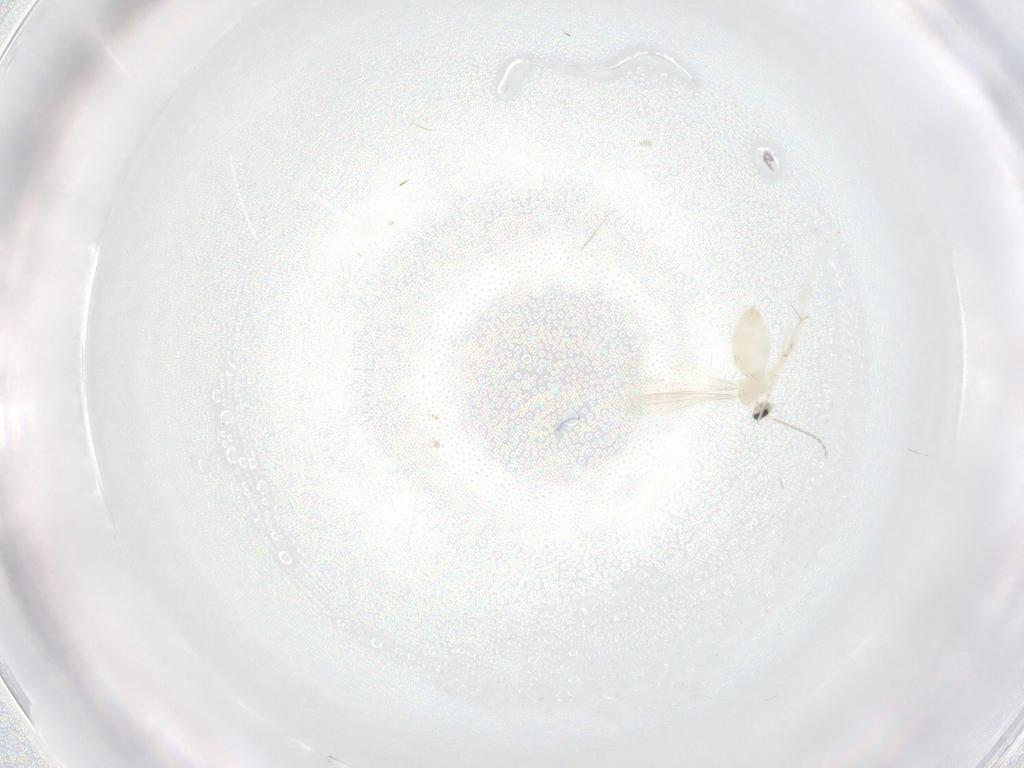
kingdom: Animalia
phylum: Arthropoda
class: Insecta
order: Diptera
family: Cecidomyiidae
